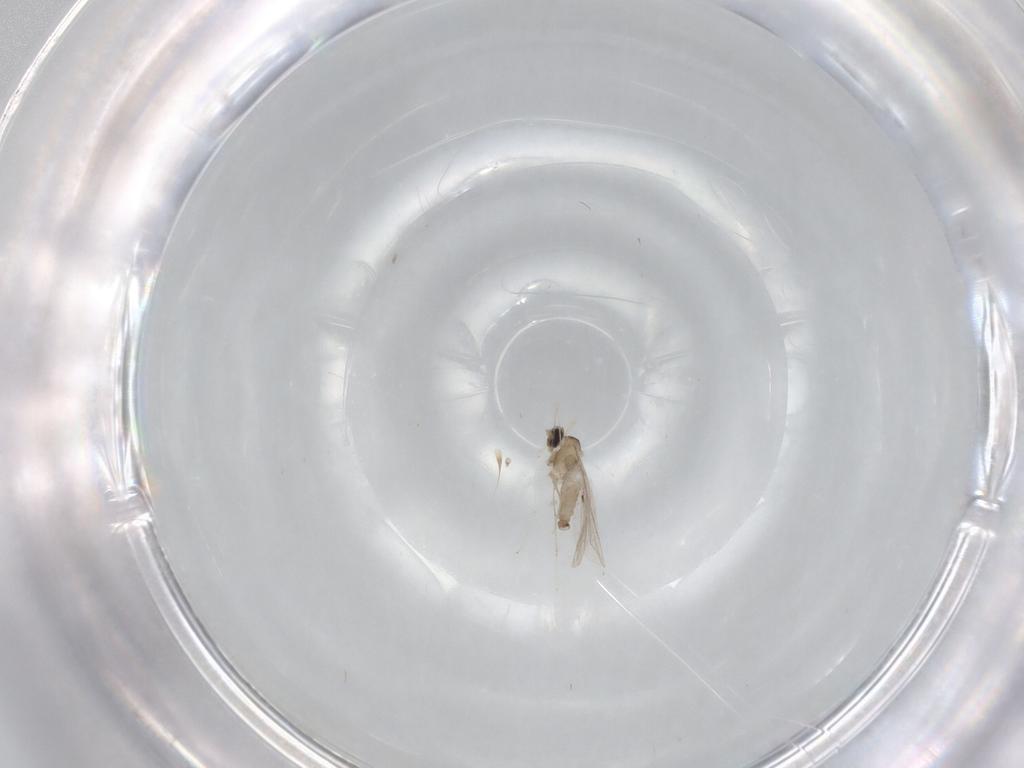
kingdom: Animalia
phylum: Arthropoda
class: Insecta
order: Diptera
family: Cecidomyiidae
